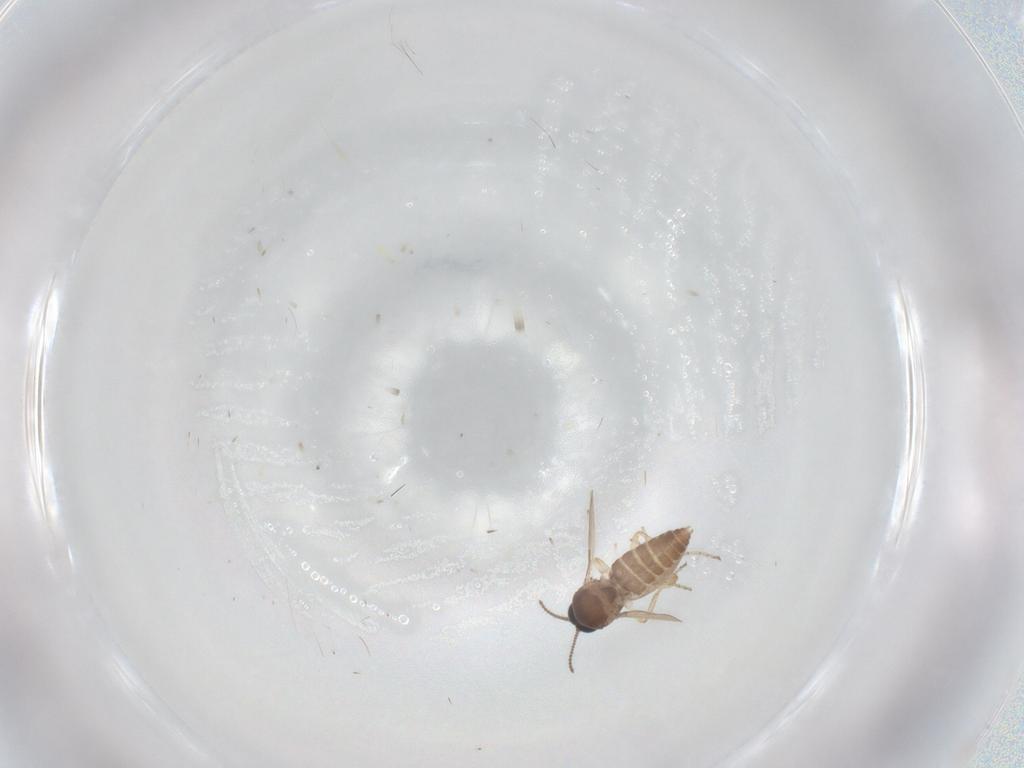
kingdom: Animalia
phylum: Arthropoda
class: Insecta
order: Diptera
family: Ceratopogonidae
